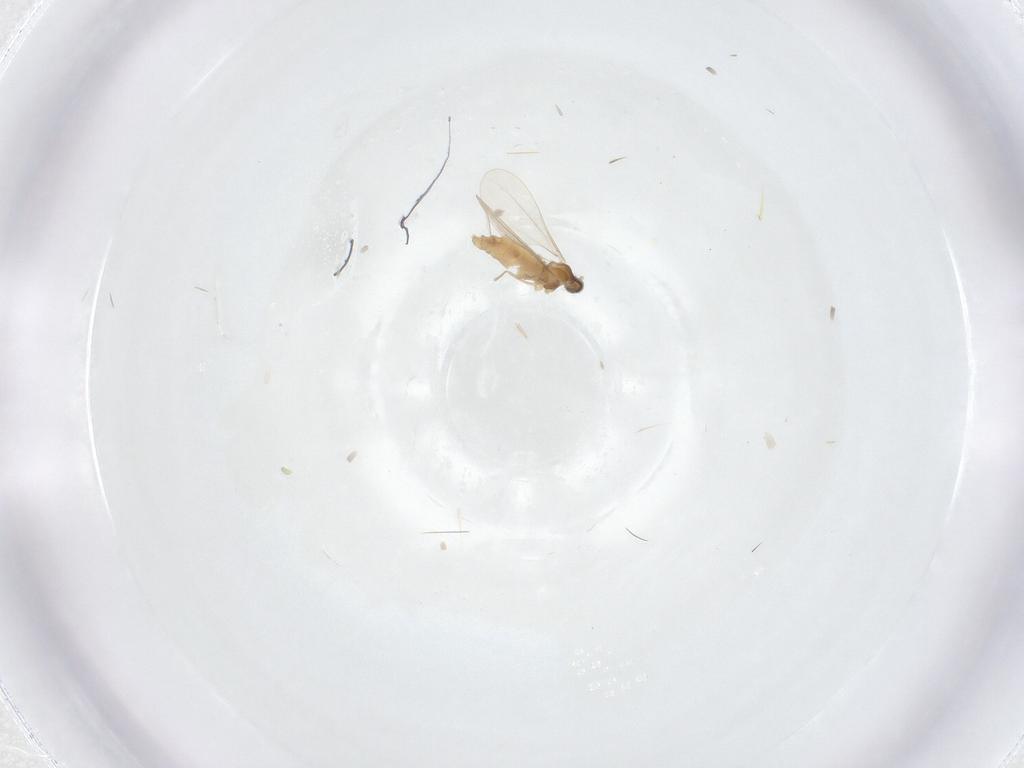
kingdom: Animalia
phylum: Arthropoda
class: Insecta
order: Diptera
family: Cecidomyiidae
